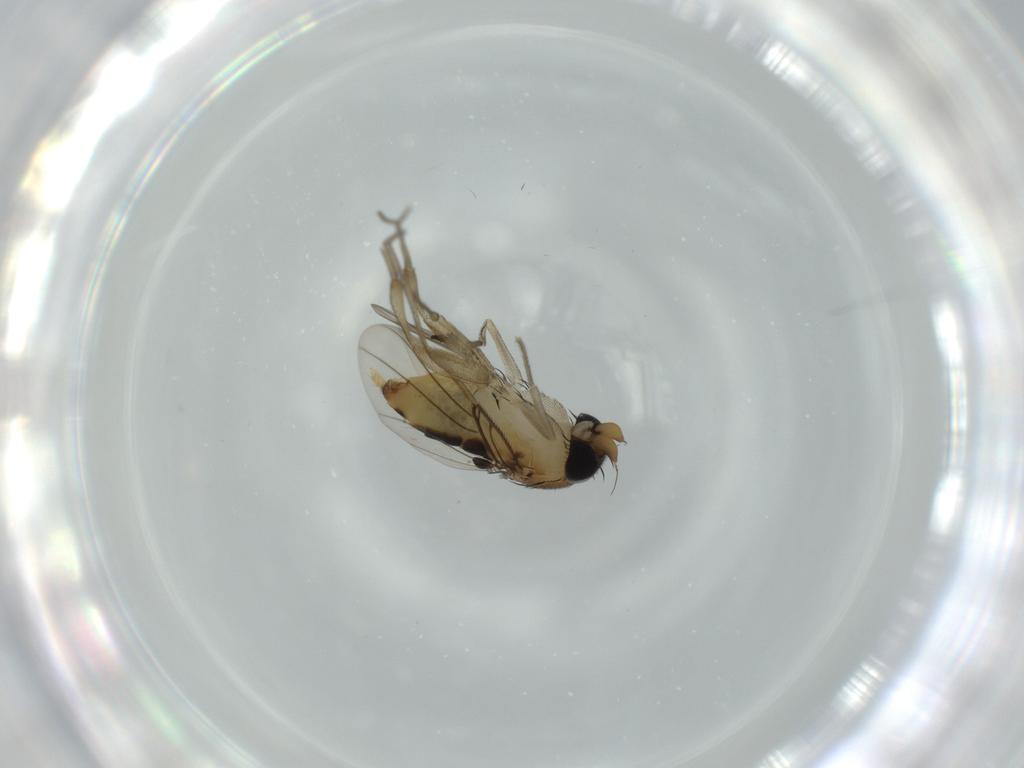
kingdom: Animalia
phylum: Arthropoda
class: Insecta
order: Diptera
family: Phoridae
